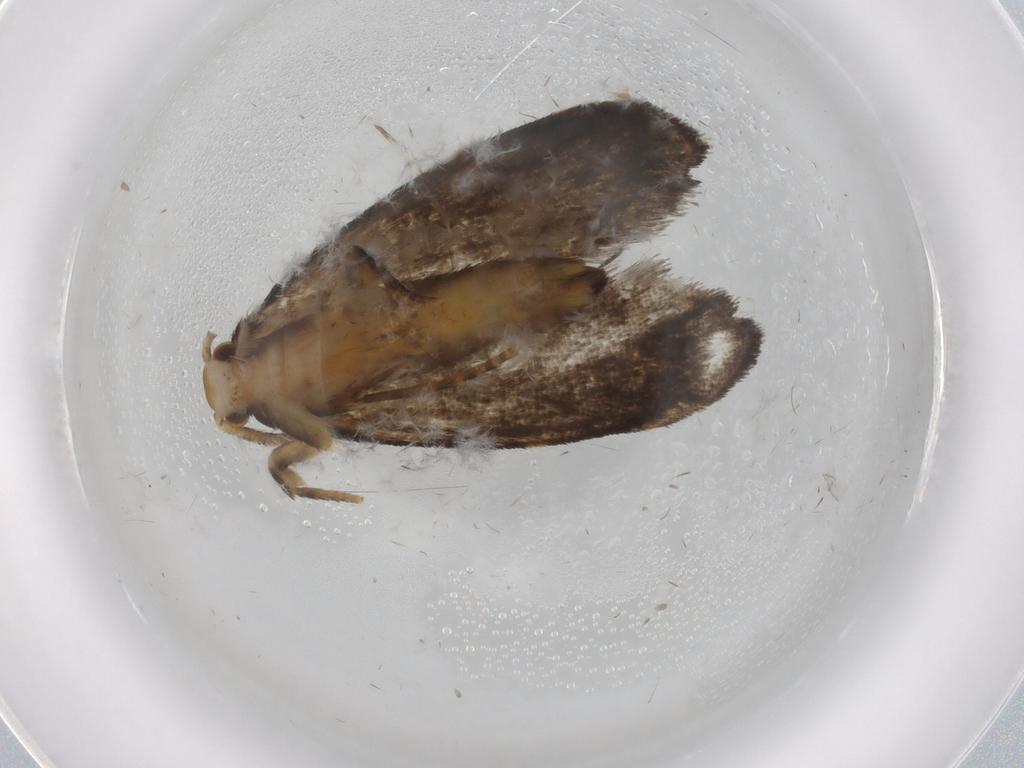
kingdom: Animalia
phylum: Arthropoda
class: Insecta
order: Lepidoptera
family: Dryadaulidae
